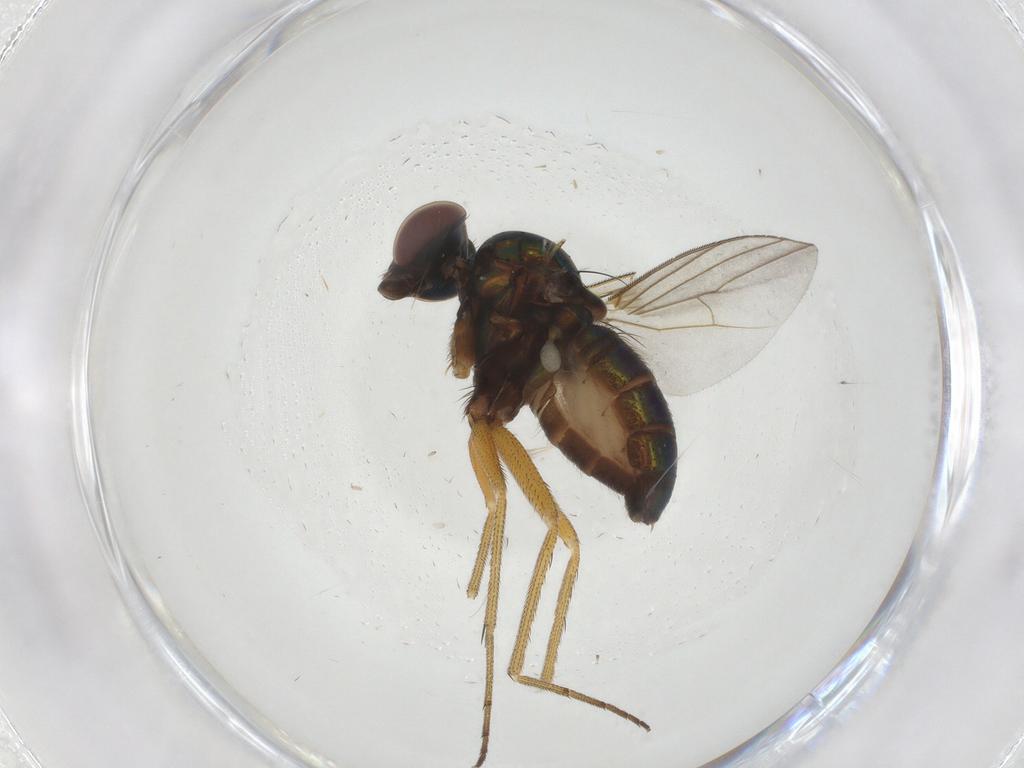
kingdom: Animalia
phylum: Arthropoda
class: Insecta
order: Diptera
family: Dolichopodidae
